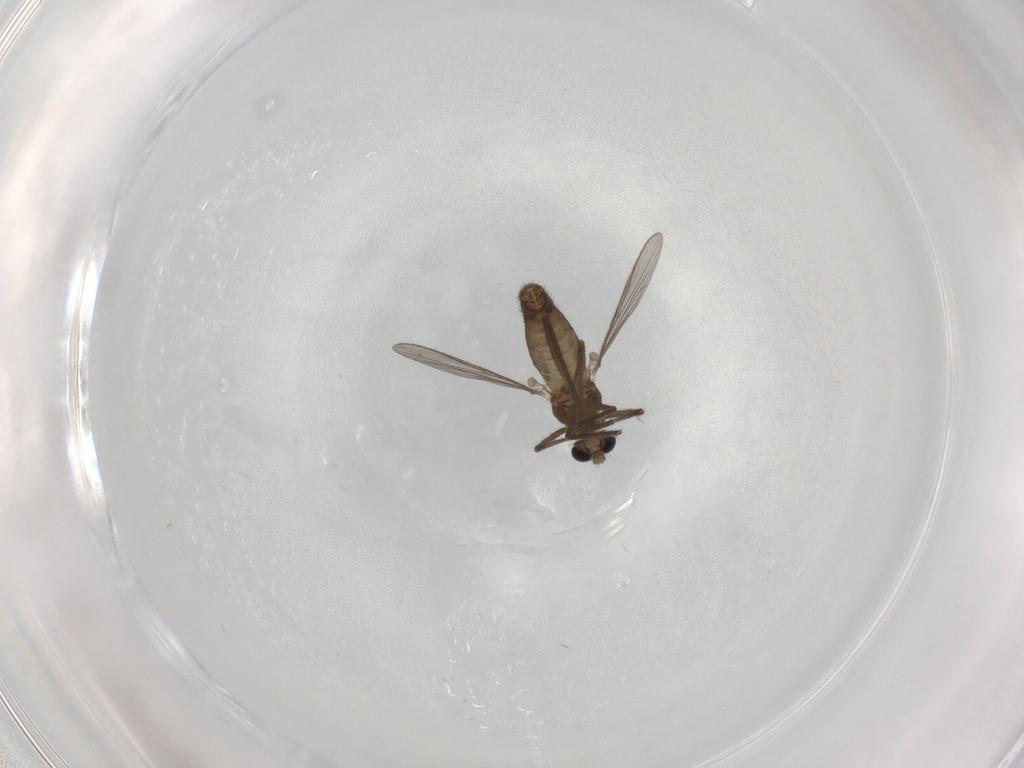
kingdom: Animalia
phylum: Arthropoda
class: Insecta
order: Diptera
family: Chironomidae
